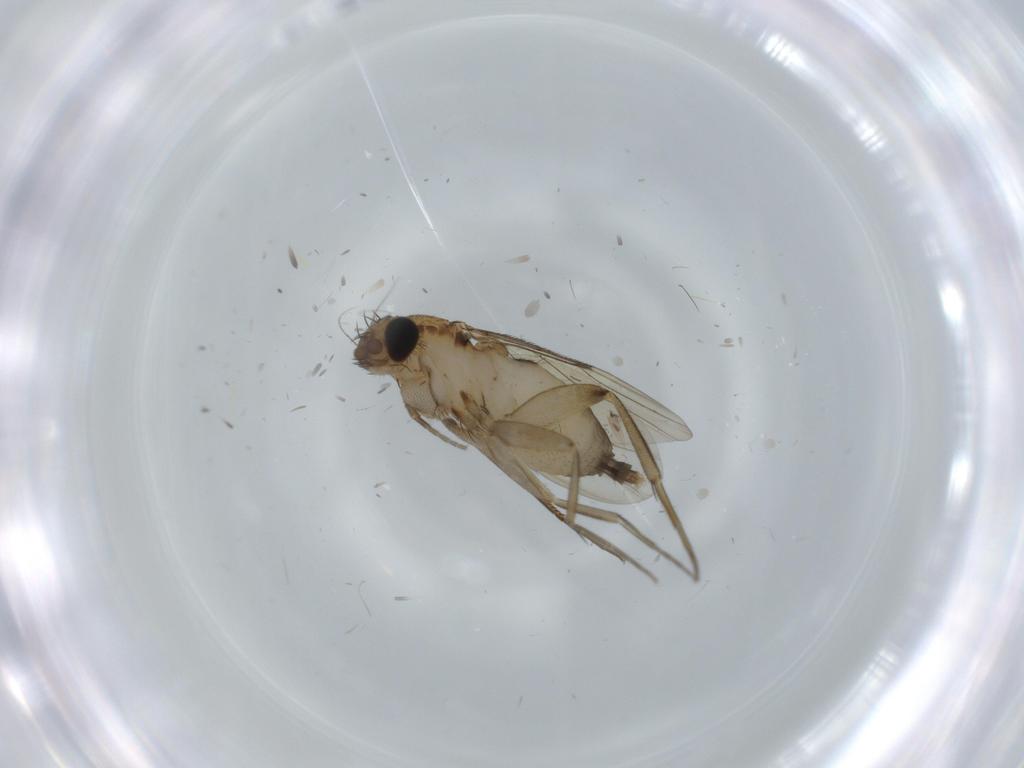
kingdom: Animalia
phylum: Arthropoda
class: Insecta
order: Diptera
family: Phoridae
